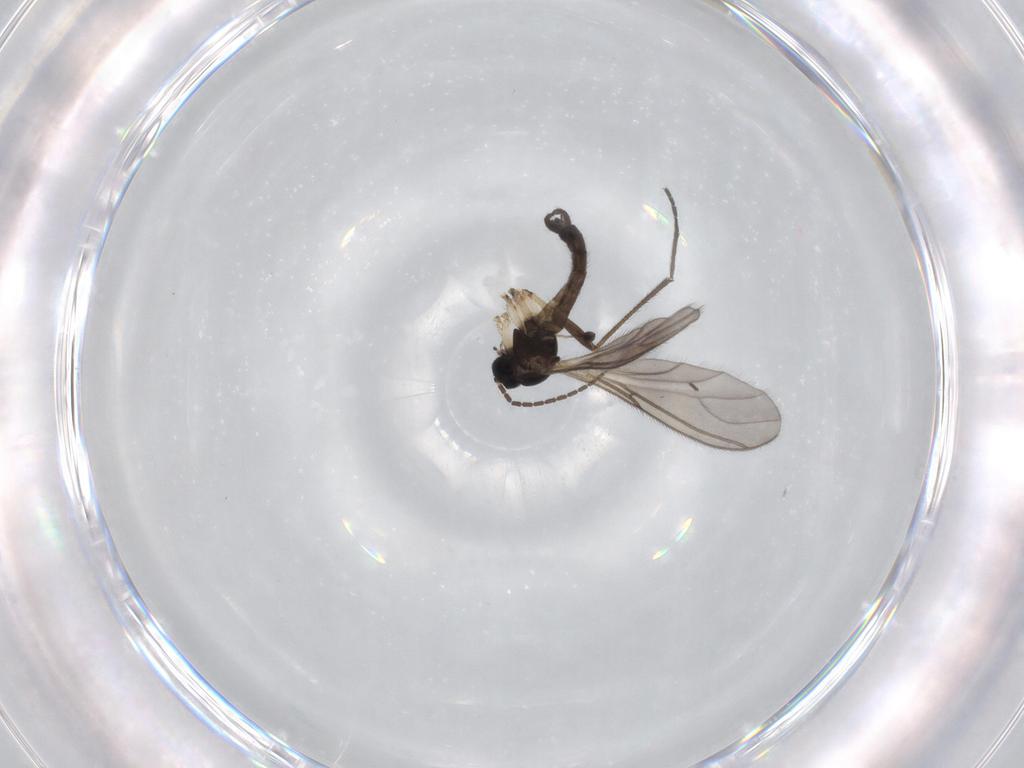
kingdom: Animalia
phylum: Arthropoda
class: Insecta
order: Diptera
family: Sciaridae
